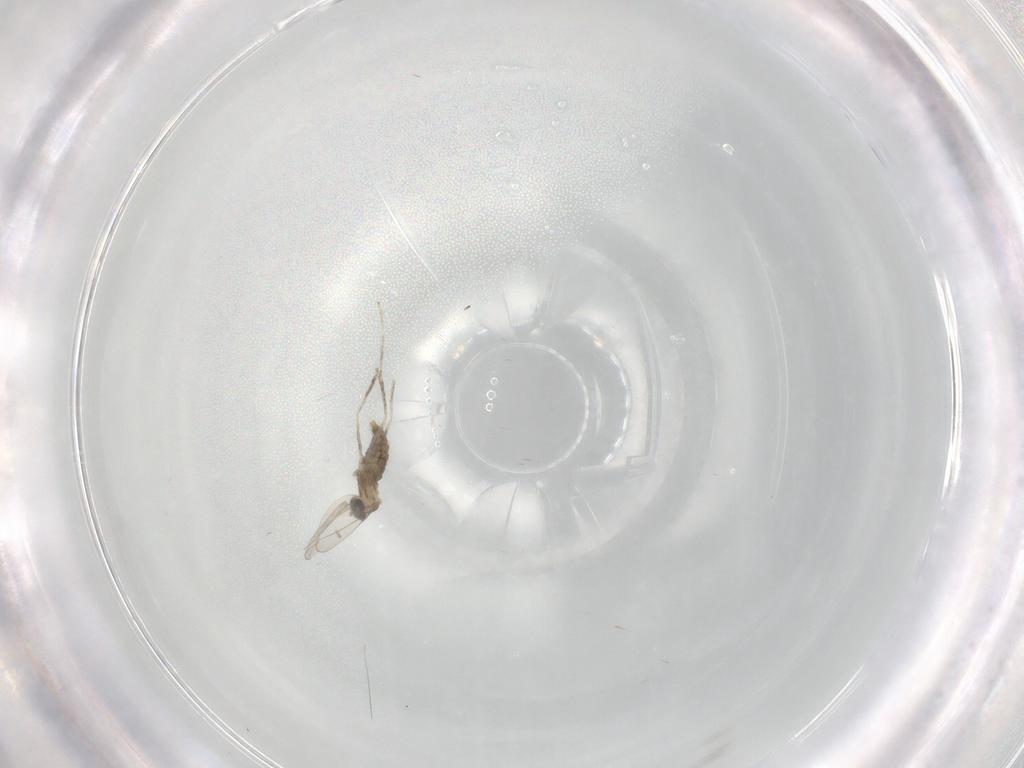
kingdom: Animalia
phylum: Arthropoda
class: Insecta
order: Diptera
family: Cecidomyiidae
